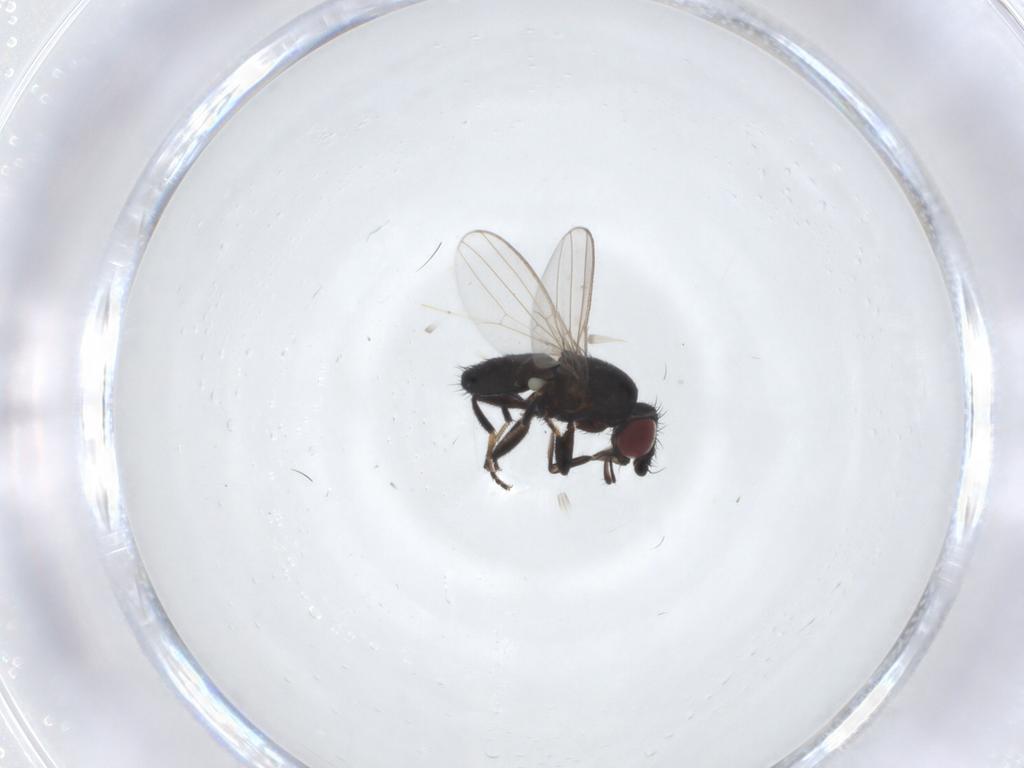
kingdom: Animalia
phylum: Arthropoda
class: Insecta
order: Diptera
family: Milichiidae
